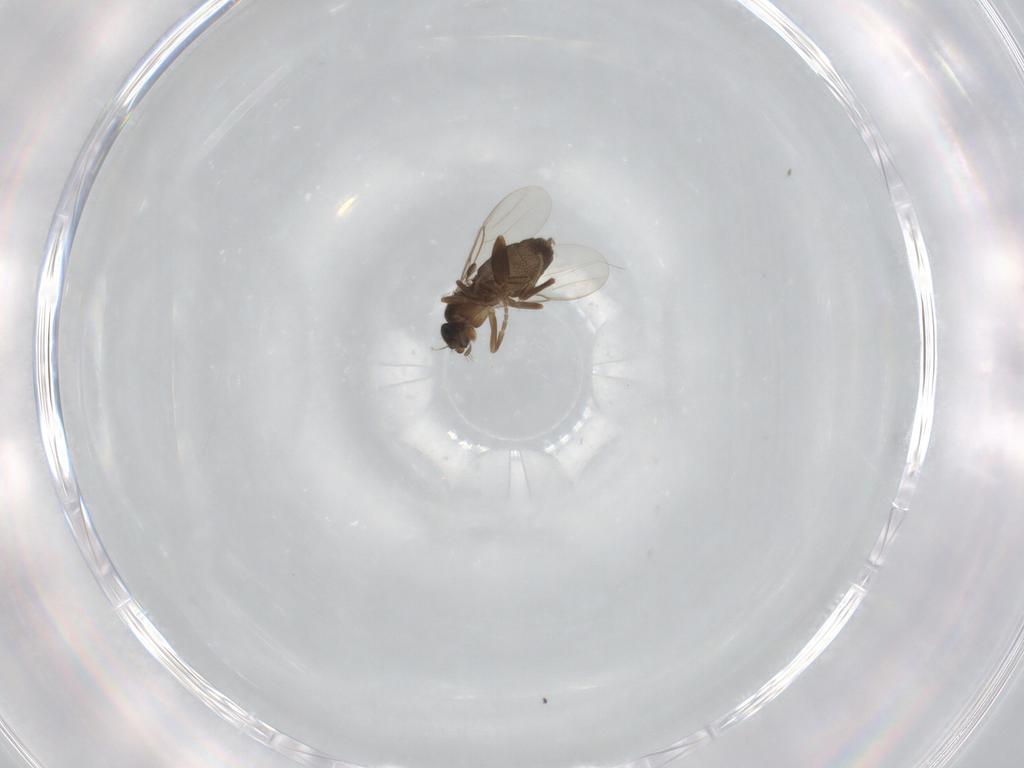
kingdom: Animalia
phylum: Arthropoda
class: Insecta
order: Diptera
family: Phoridae
